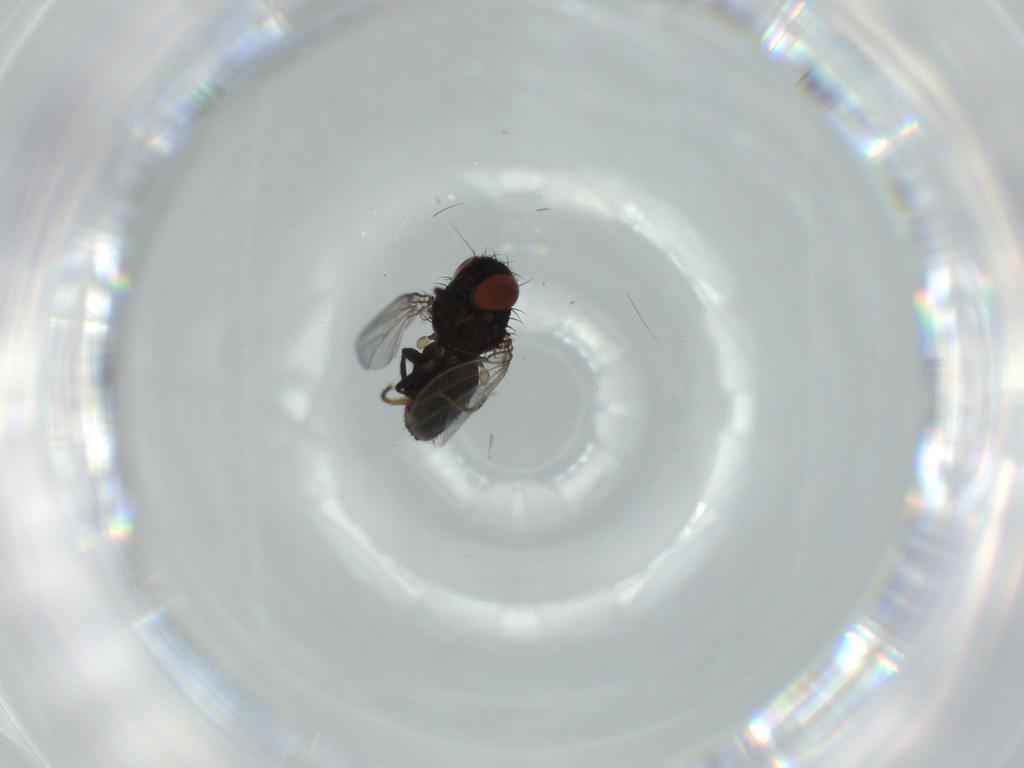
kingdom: Animalia
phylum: Arthropoda
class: Insecta
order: Diptera
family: Milichiidae
